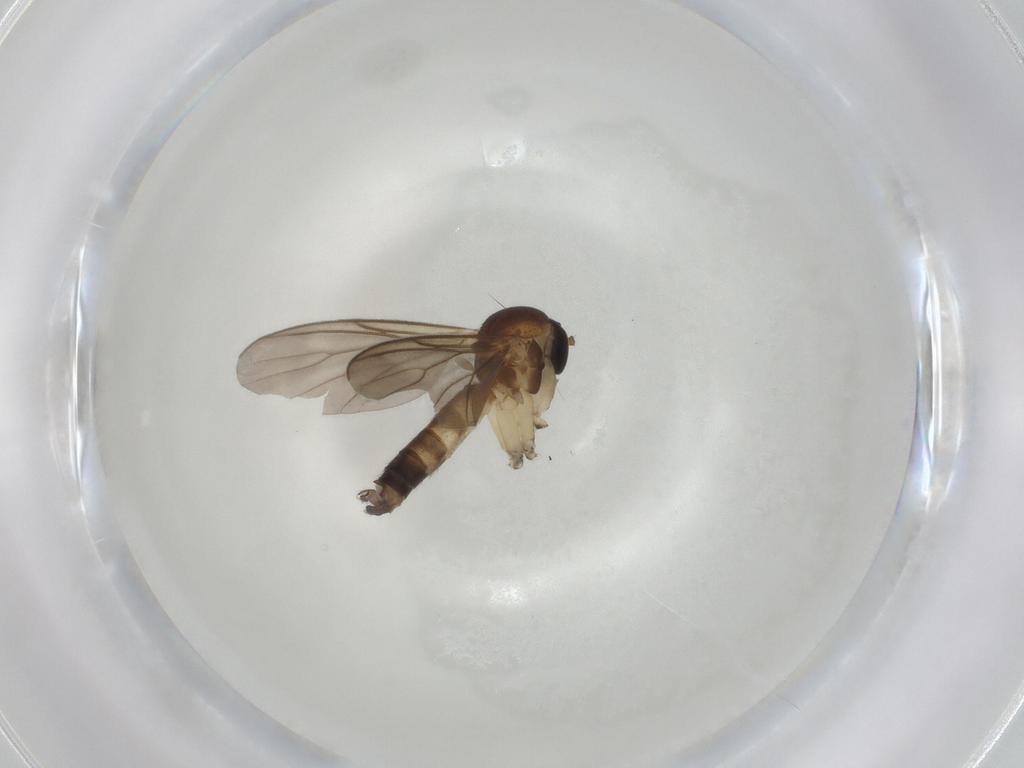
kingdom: Animalia
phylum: Arthropoda
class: Insecta
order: Diptera
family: Mycetophilidae
